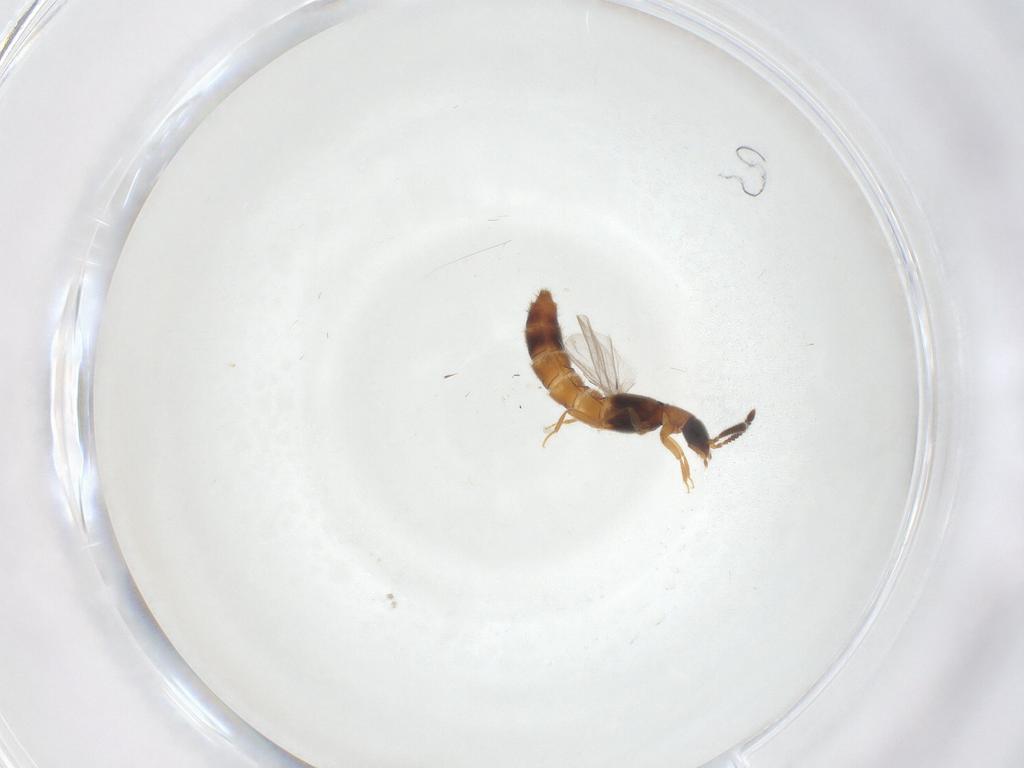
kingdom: Animalia
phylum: Arthropoda
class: Insecta
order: Coleoptera
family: Staphylinidae
